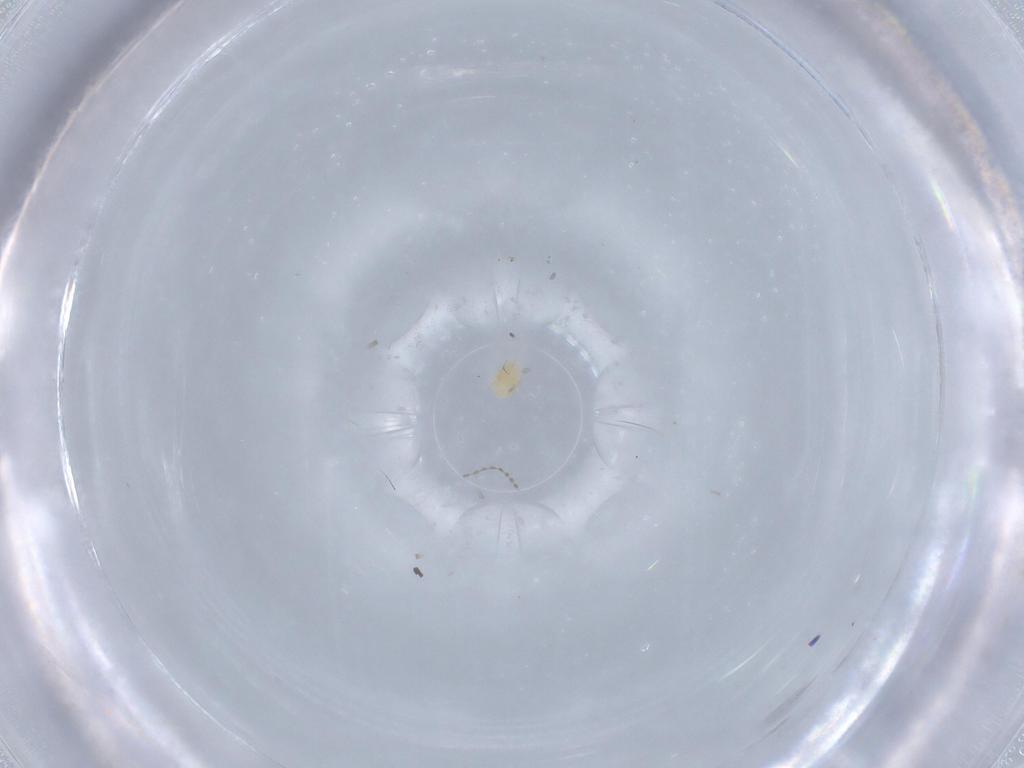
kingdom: Animalia
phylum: Arthropoda
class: Arachnida
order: Trombidiformes
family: Tetranychidae
